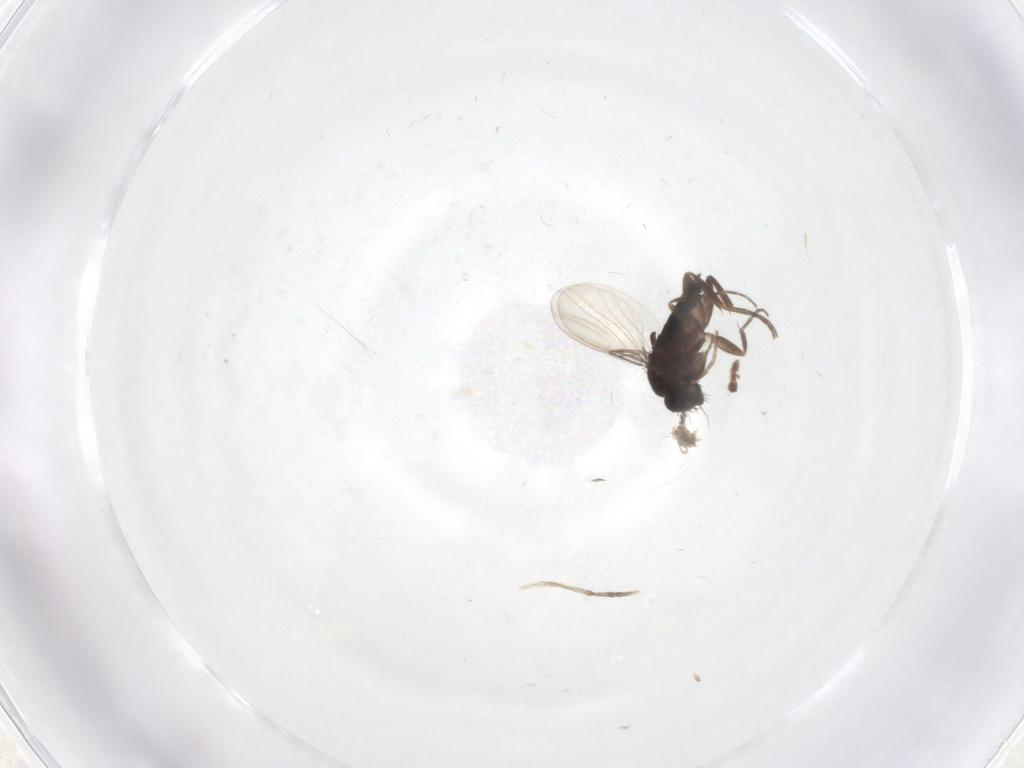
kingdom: Animalia
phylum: Arthropoda
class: Insecta
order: Diptera
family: Phoridae
